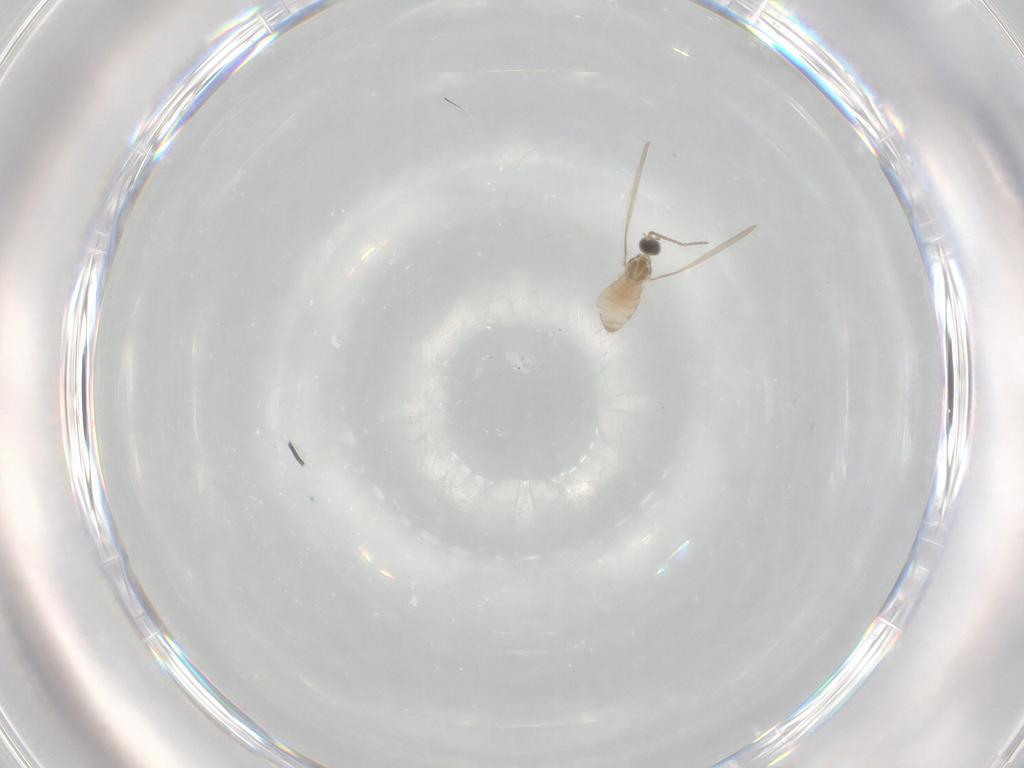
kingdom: Animalia
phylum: Arthropoda
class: Insecta
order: Diptera
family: Cecidomyiidae
